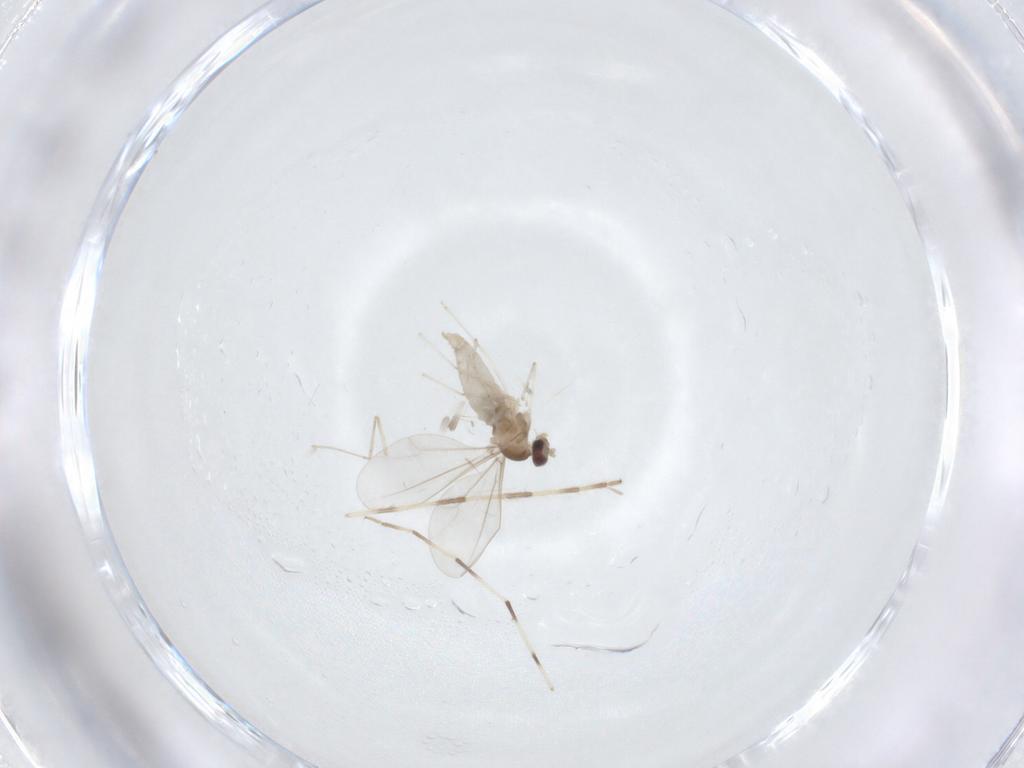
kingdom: Animalia
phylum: Arthropoda
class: Insecta
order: Diptera
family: Cecidomyiidae
